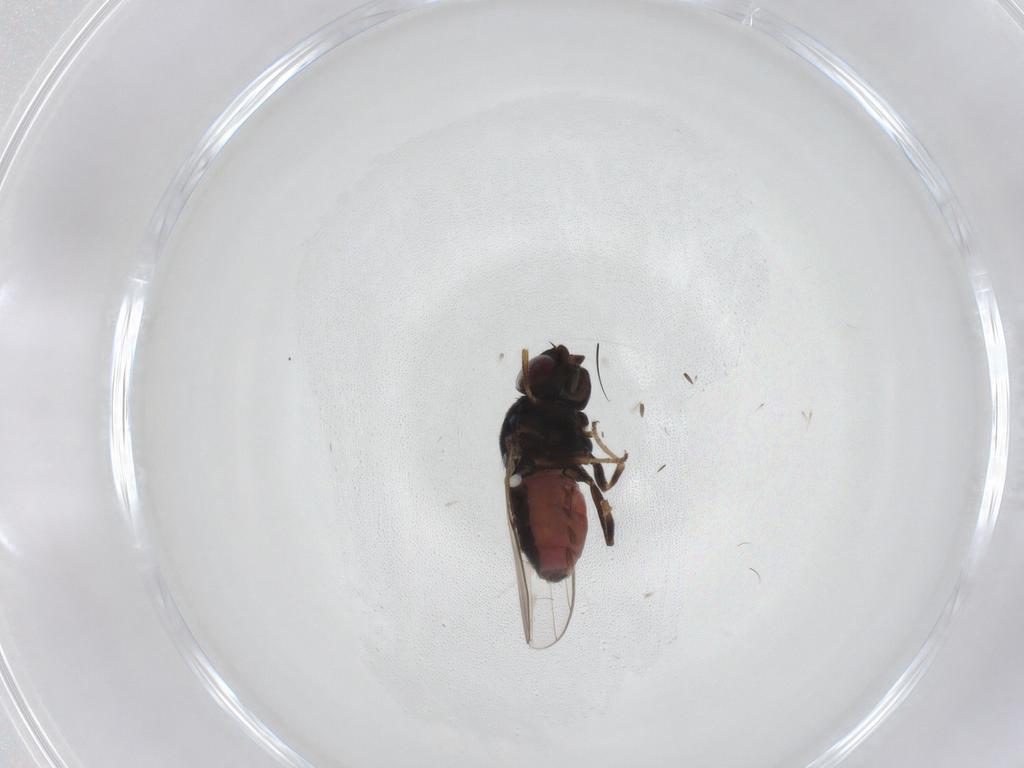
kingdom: Animalia
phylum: Arthropoda
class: Insecta
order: Diptera
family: Chloropidae
